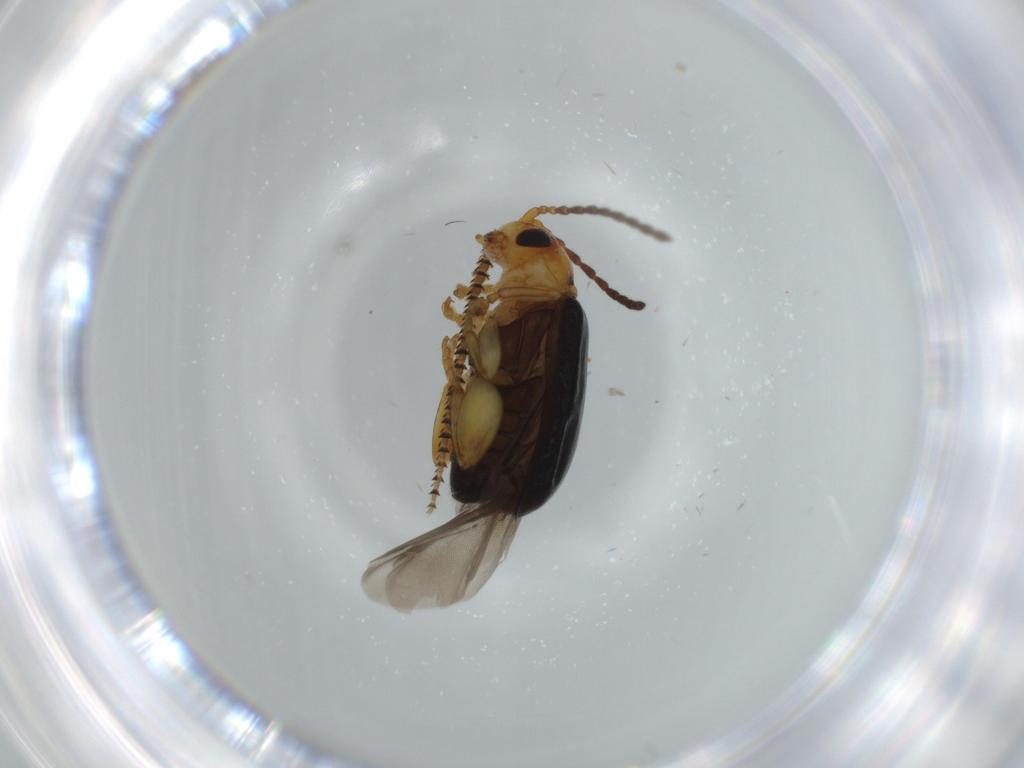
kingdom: Animalia
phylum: Arthropoda
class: Insecta
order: Coleoptera
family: Chrysomelidae
